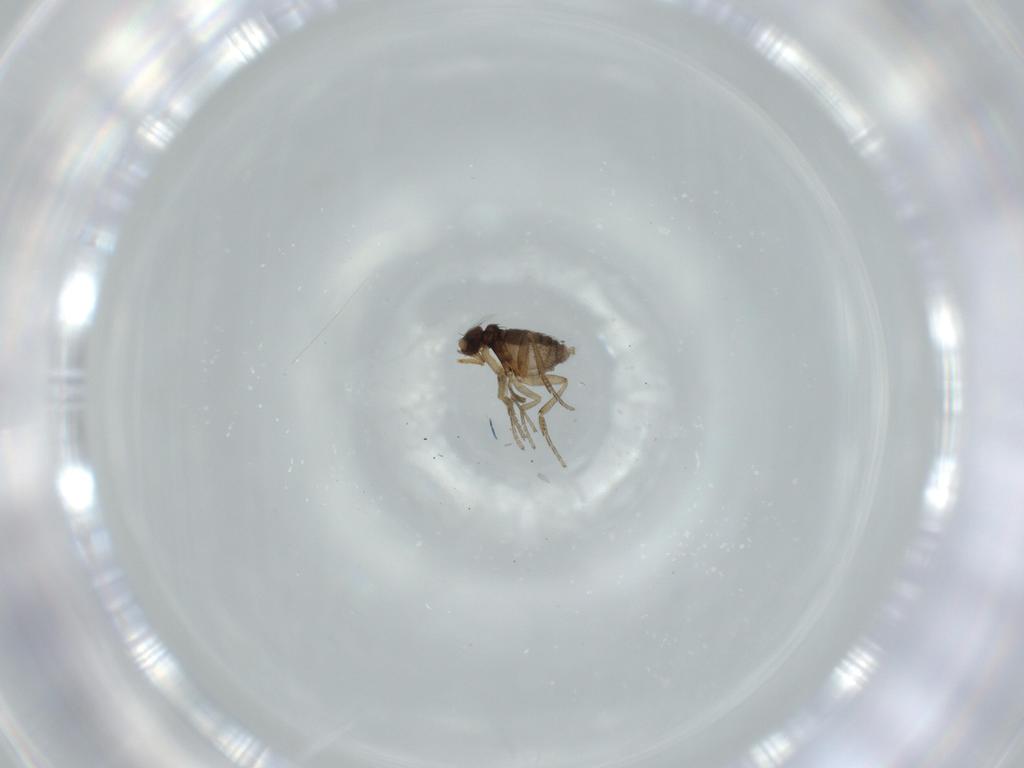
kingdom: Animalia
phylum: Arthropoda
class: Insecta
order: Diptera
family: Phoridae
